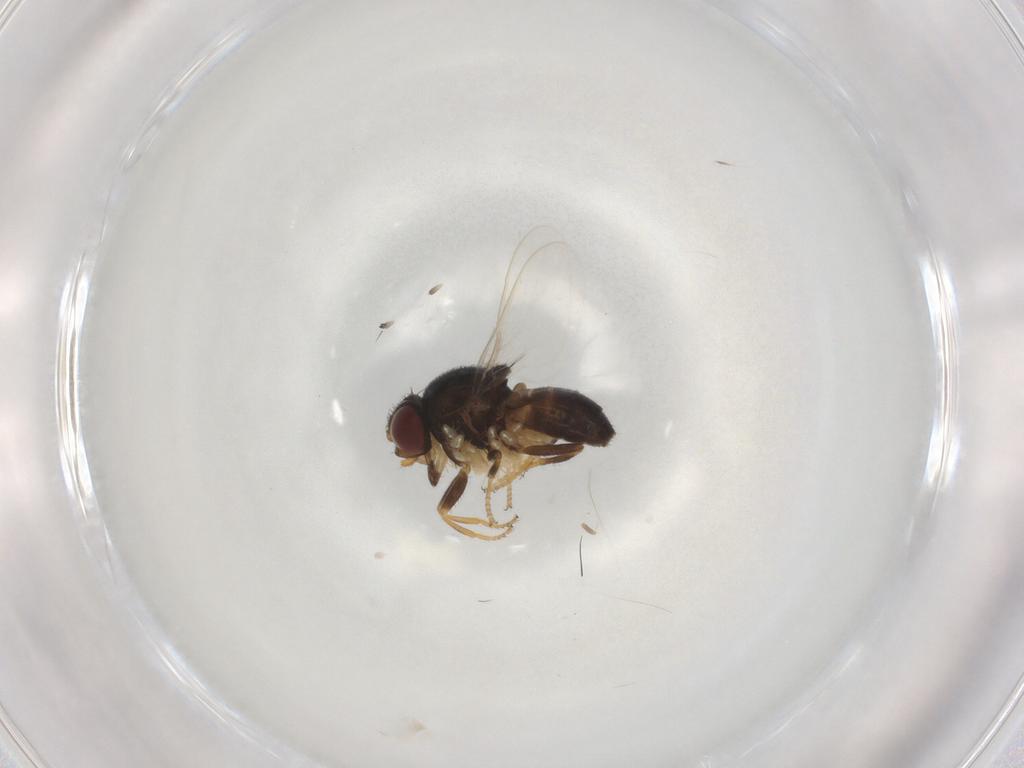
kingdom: Animalia
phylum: Arthropoda
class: Insecta
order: Diptera
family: Chloropidae
